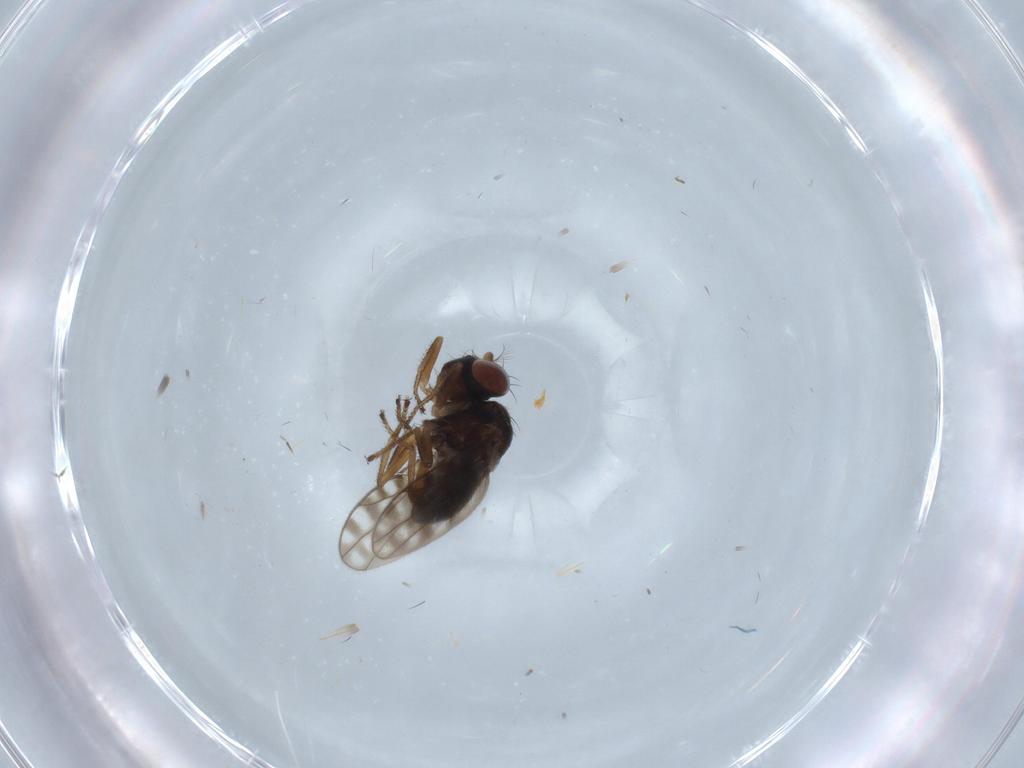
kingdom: Animalia
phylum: Arthropoda
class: Insecta
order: Diptera
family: Ephydridae
